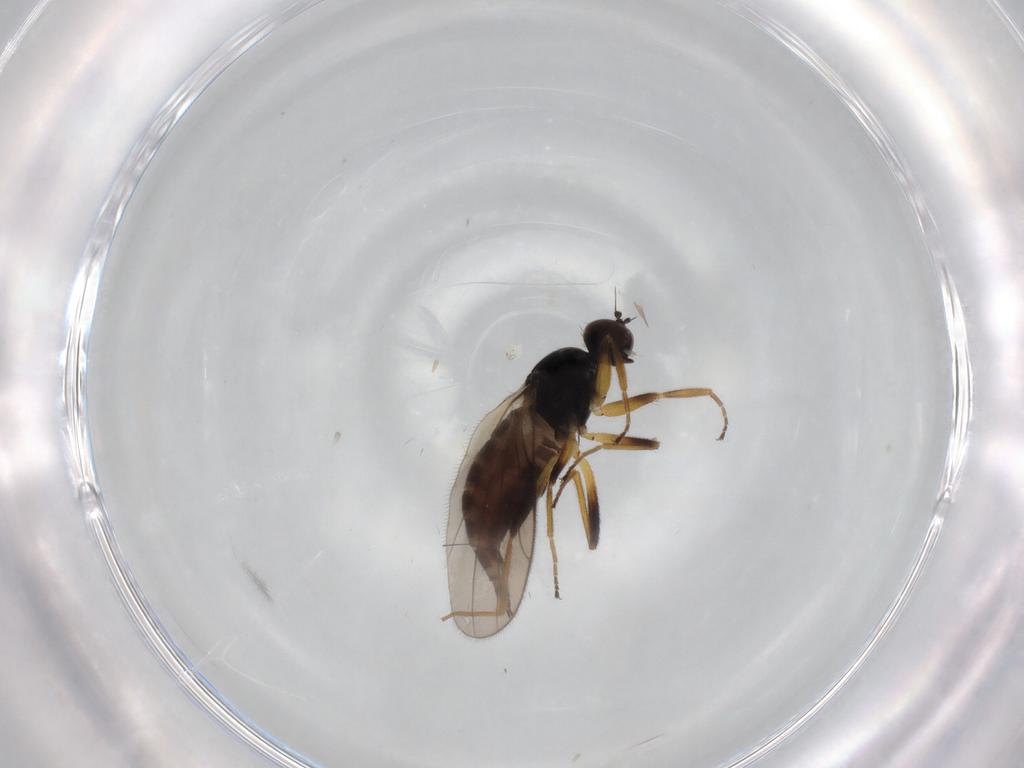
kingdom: Animalia
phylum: Arthropoda
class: Insecta
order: Diptera
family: Hybotidae
